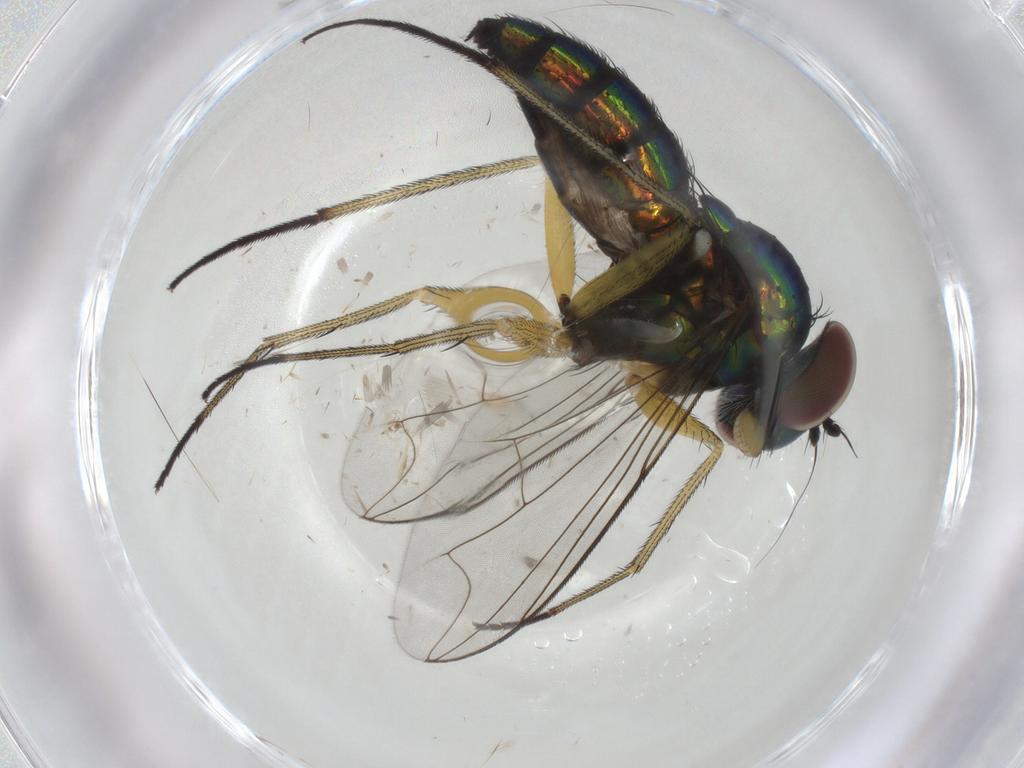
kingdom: Animalia
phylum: Arthropoda
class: Insecta
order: Diptera
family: Dolichopodidae
